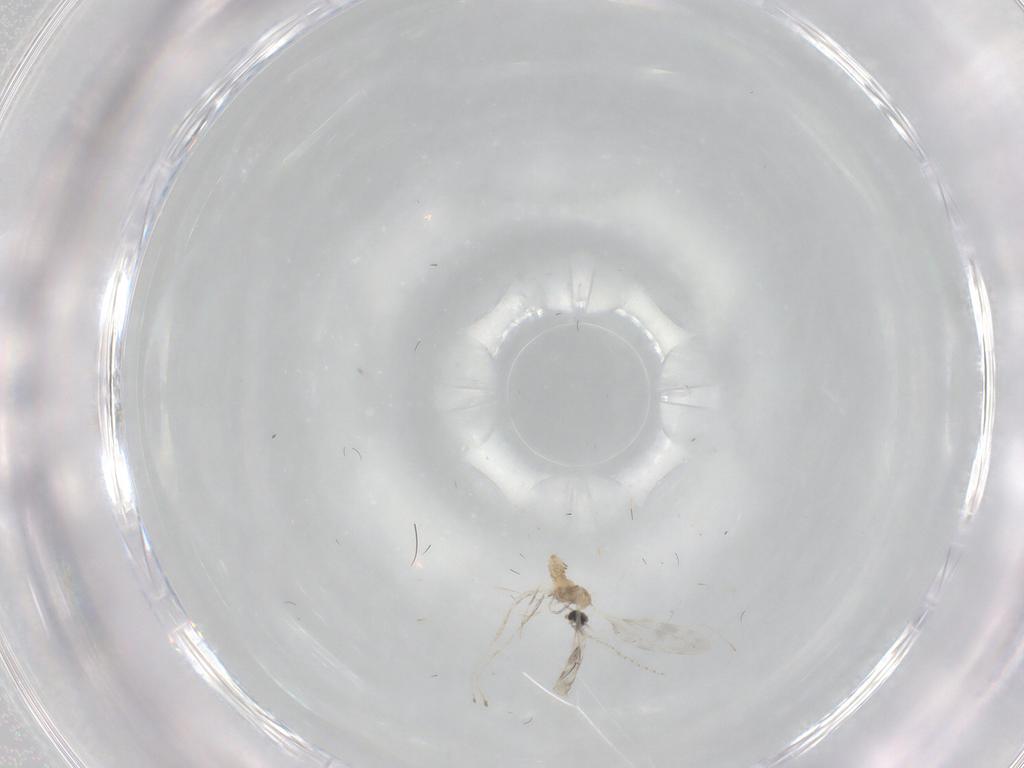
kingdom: Animalia
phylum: Arthropoda
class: Insecta
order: Diptera
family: Cecidomyiidae
